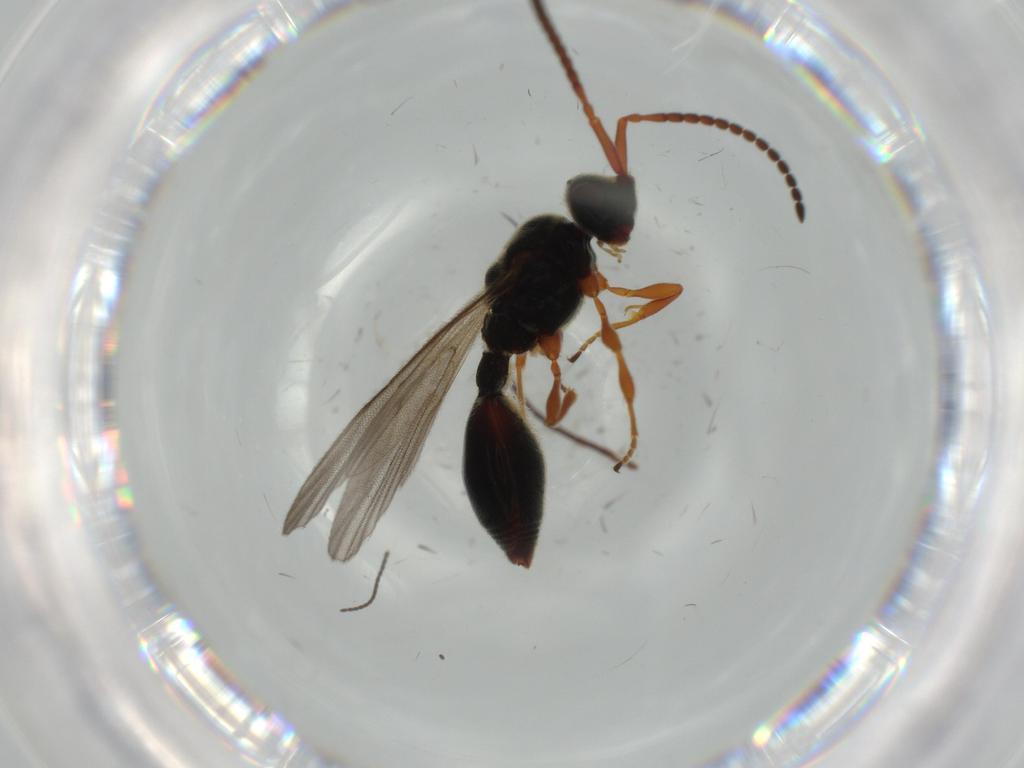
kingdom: Animalia
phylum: Arthropoda
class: Insecta
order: Hymenoptera
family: Ichneumonidae
